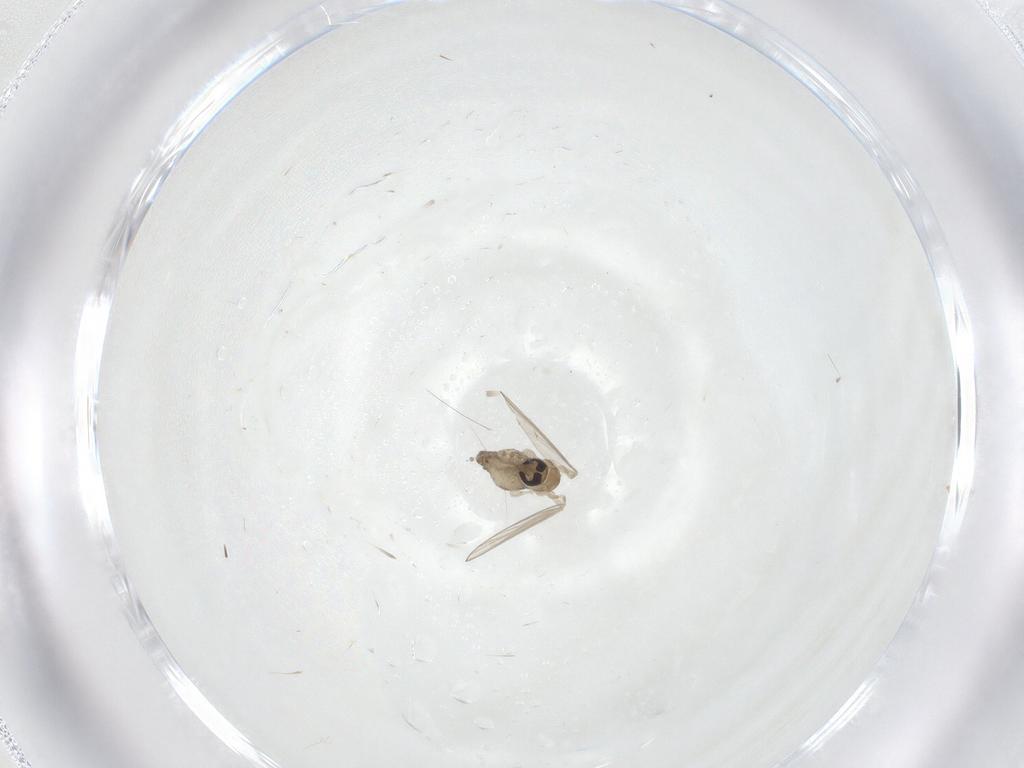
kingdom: Animalia
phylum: Arthropoda
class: Insecta
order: Diptera
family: Psychodidae
